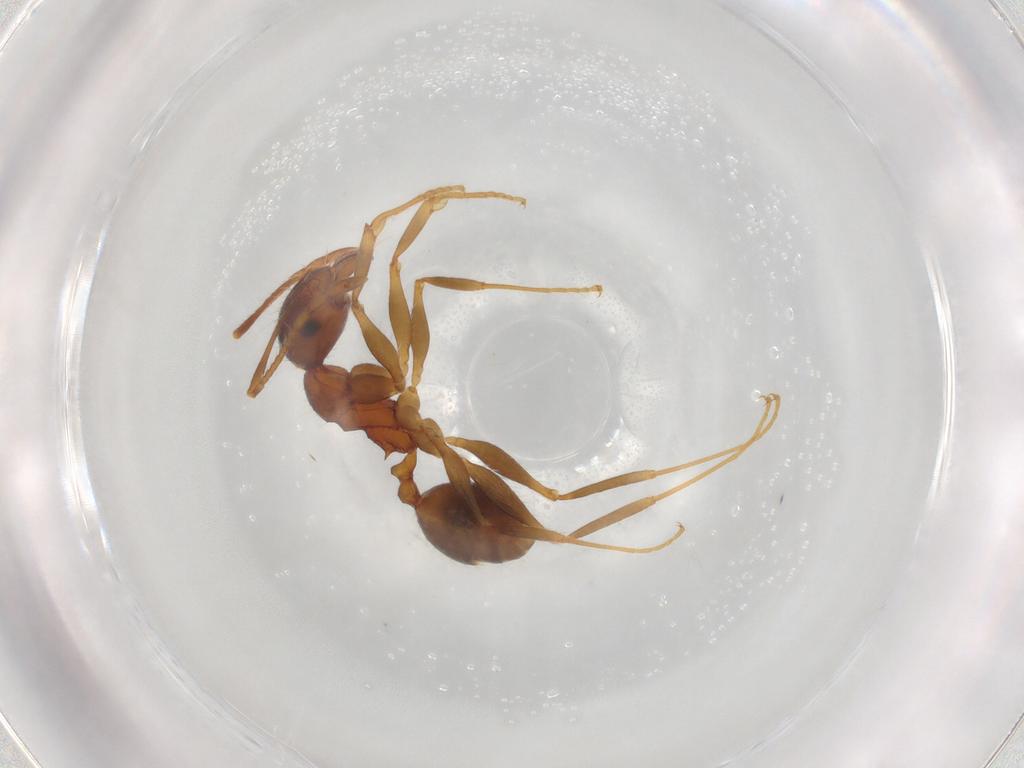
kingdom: Animalia
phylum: Arthropoda
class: Insecta
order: Hymenoptera
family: Formicidae
